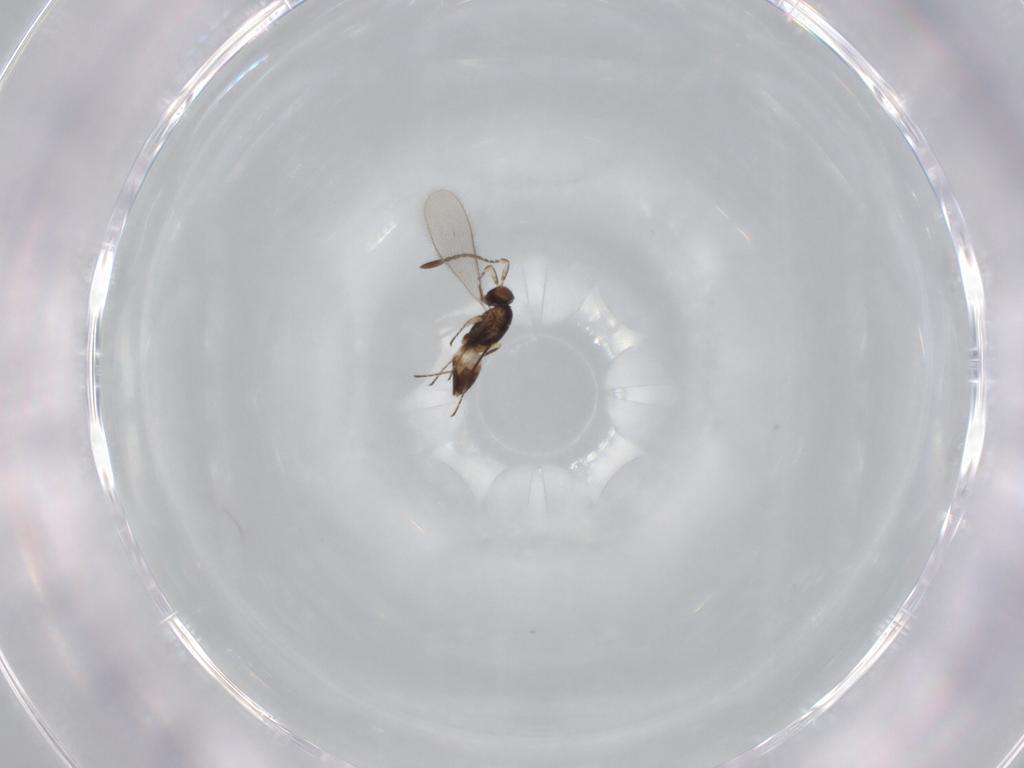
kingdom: Animalia
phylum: Arthropoda
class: Insecta
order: Hymenoptera
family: Mymaridae
